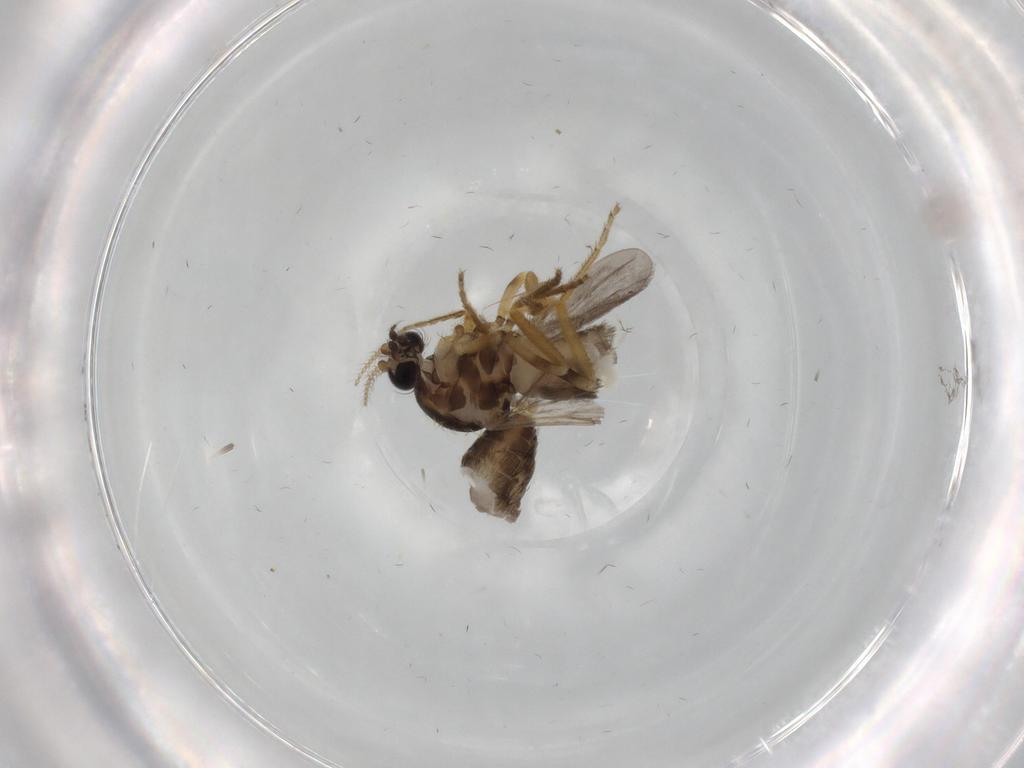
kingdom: Animalia
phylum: Arthropoda
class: Insecta
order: Diptera
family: Ceratopogonidae
